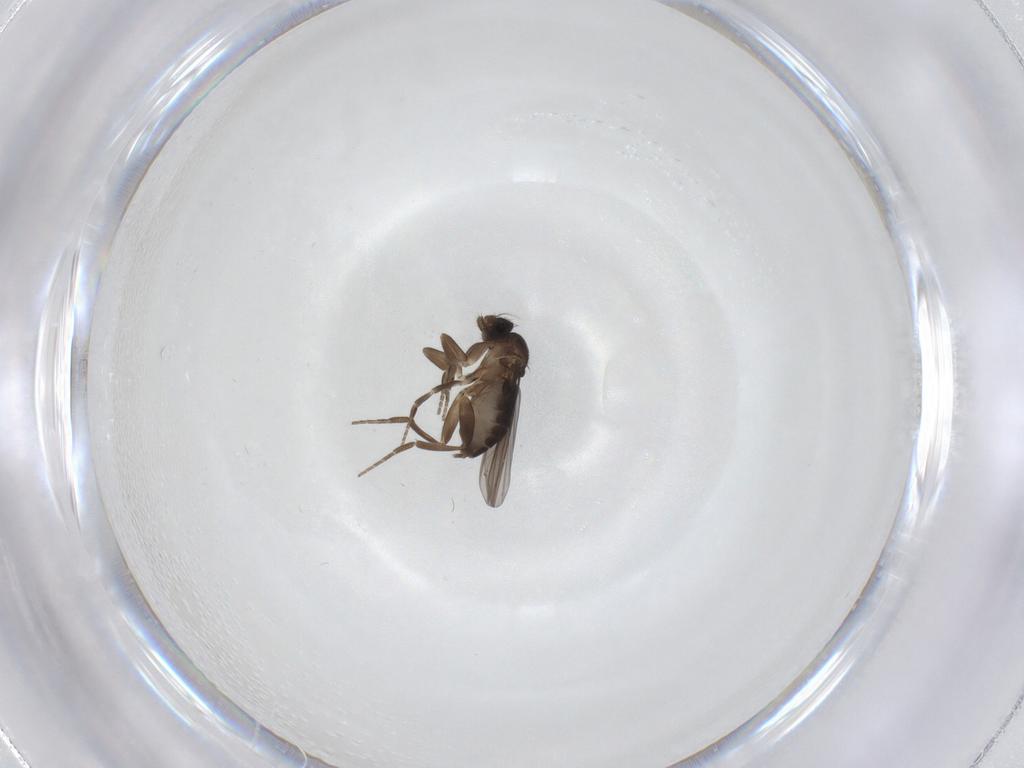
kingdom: Animalia
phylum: Arthropoda
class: Insecta
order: Diptera
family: Phoridae
